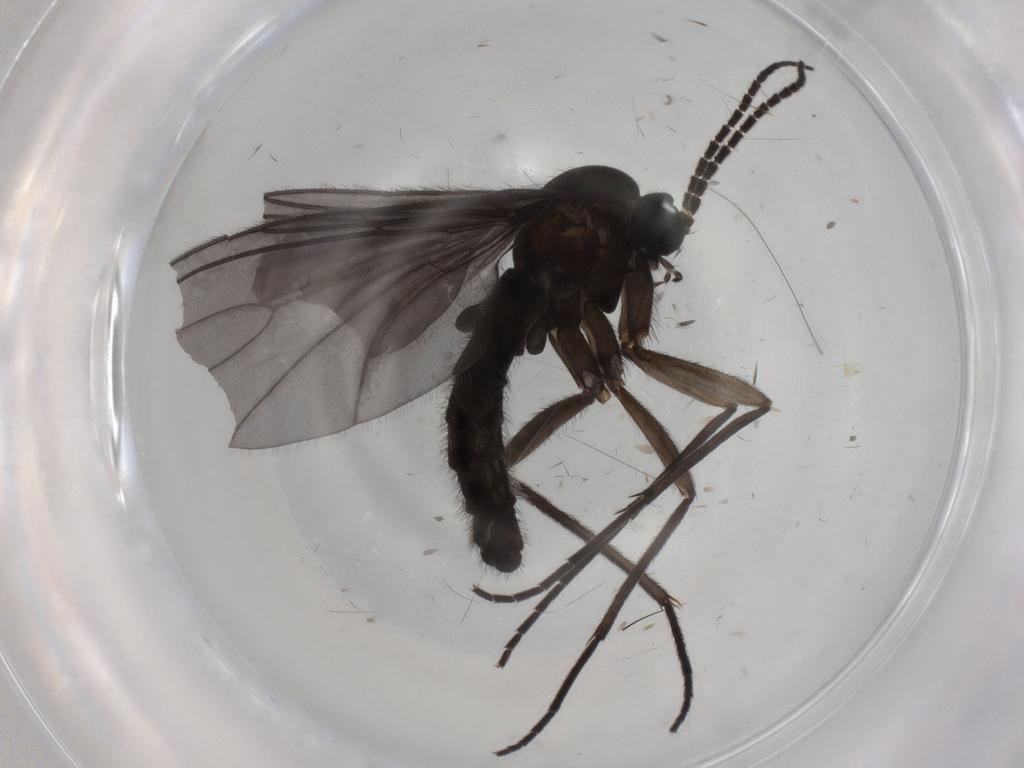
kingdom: Animalia
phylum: Arthropoda
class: Insecta
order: Diptera
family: Sciaridae
